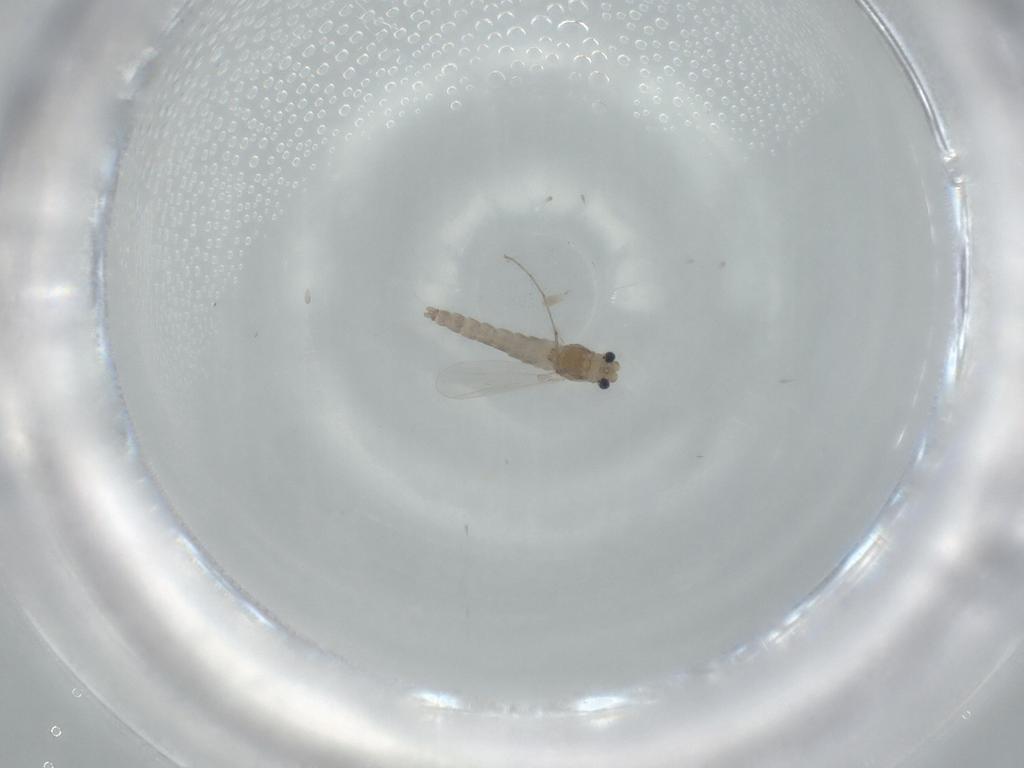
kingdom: Animalia
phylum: Arthropoda
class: Insecta
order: Diptera
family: Chironomidae
